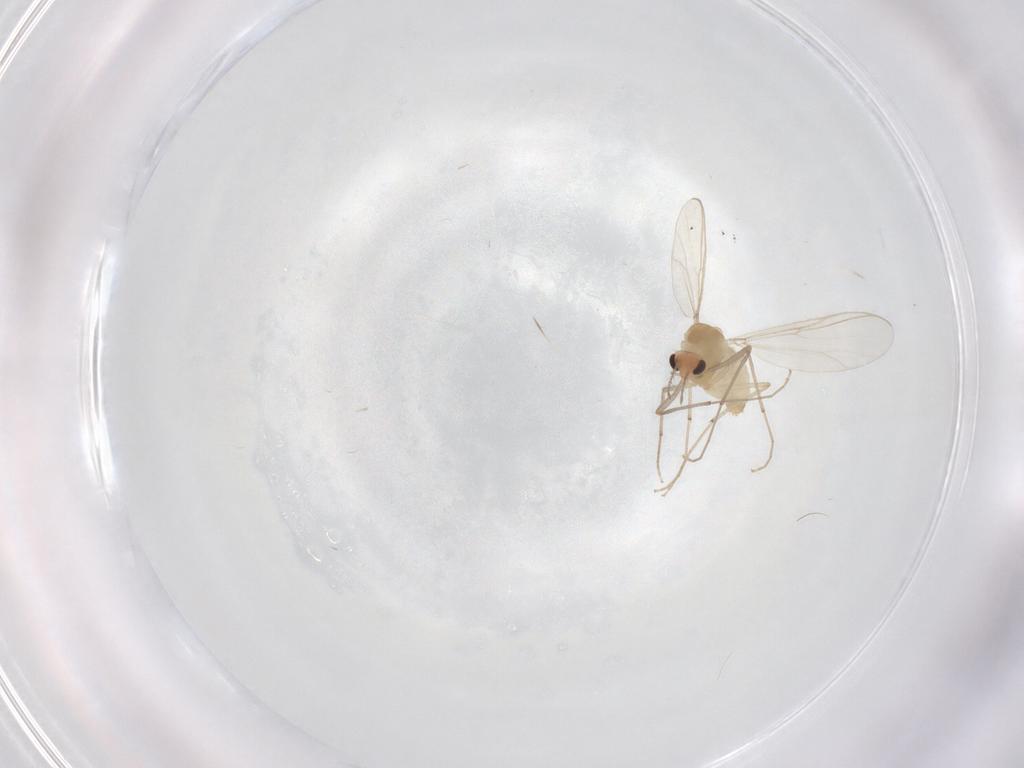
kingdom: Animalia
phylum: Arthropoda
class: Insecta
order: Diptera
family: Chironomidae
